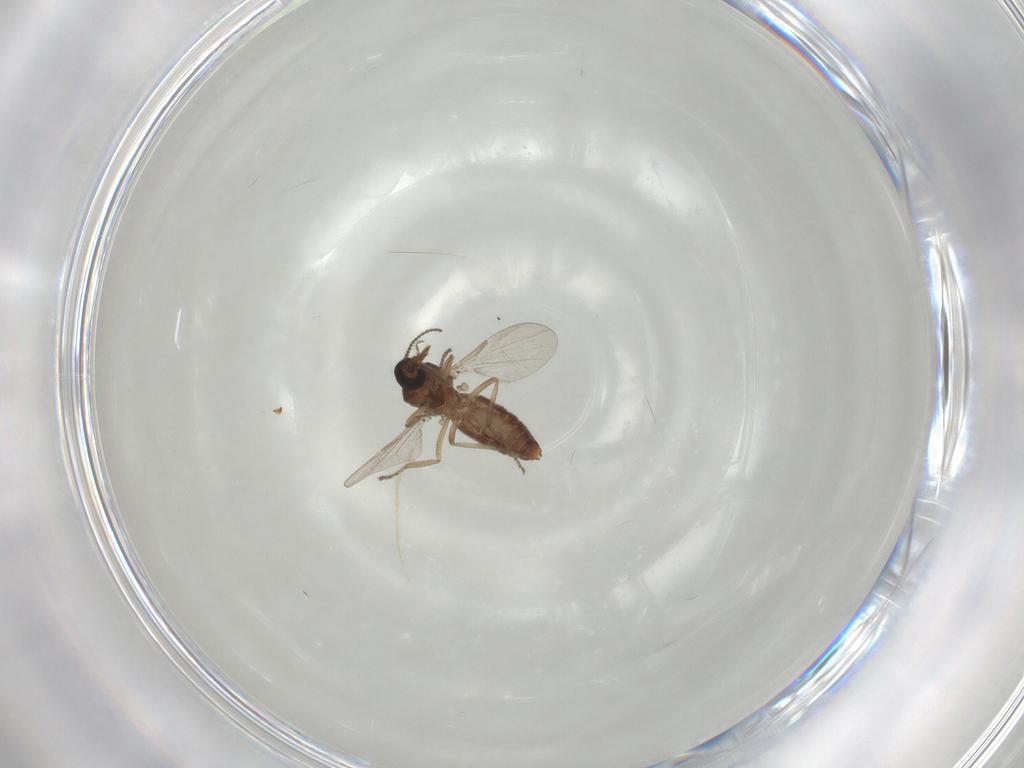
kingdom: Animalia
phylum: Arthropoda
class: Insecta
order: Diptera
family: Ceratopogonidae
